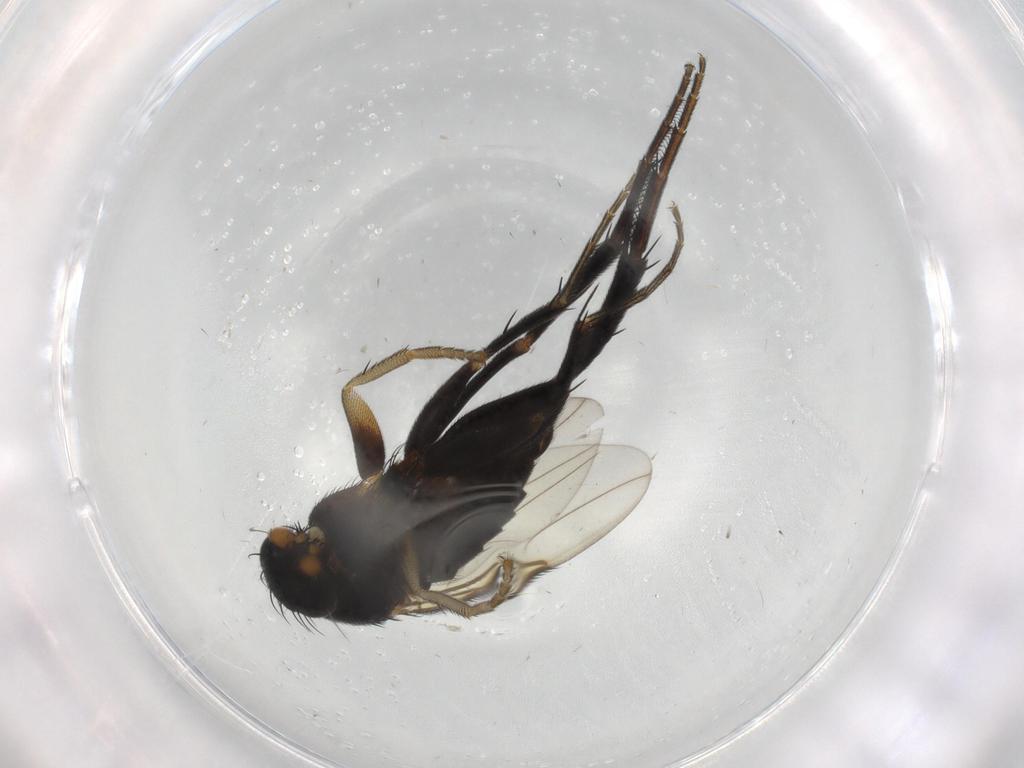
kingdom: Animalia
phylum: Arthropoda
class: Insecta
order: Diptera
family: Phoridae
